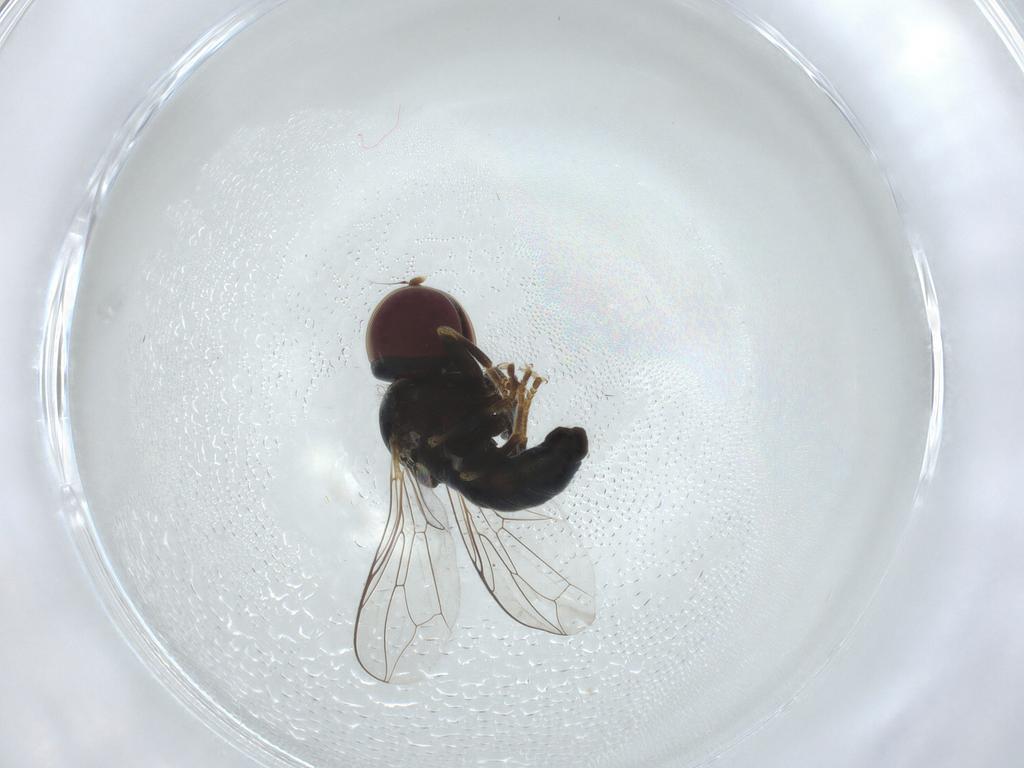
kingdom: Animalia
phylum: Arthropoda
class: Insecta
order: Diptera
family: Pipunculidae
